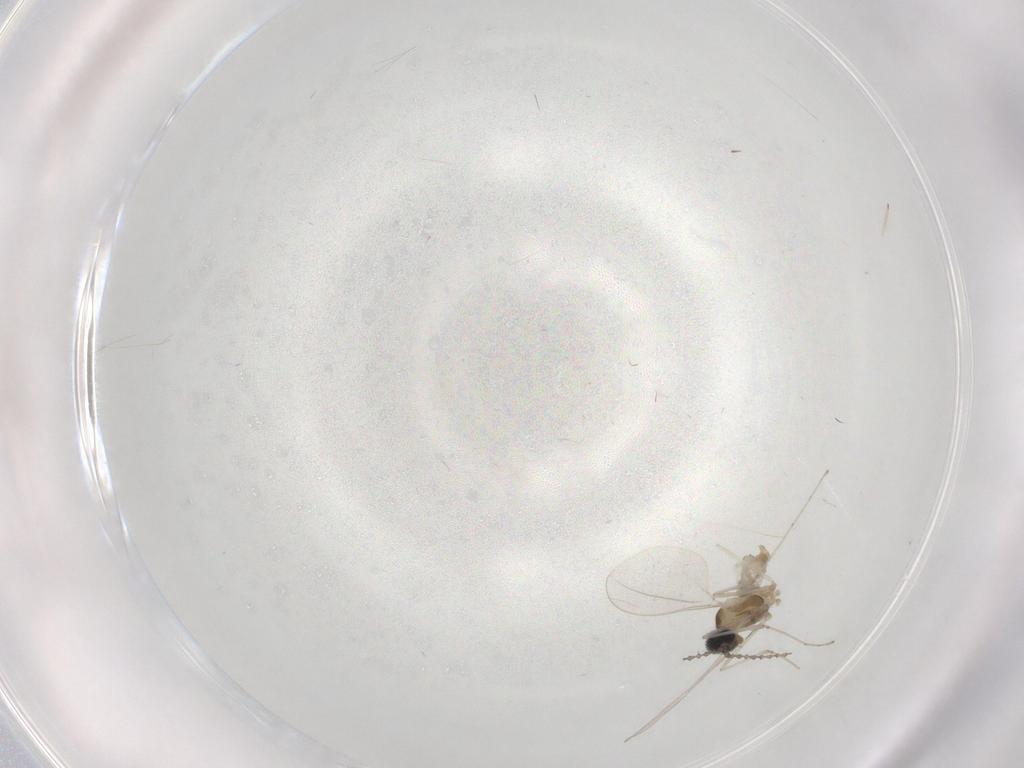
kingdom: Animalia
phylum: Arthropoda
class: Insecta
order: Diptera
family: Cecidomyiidae
